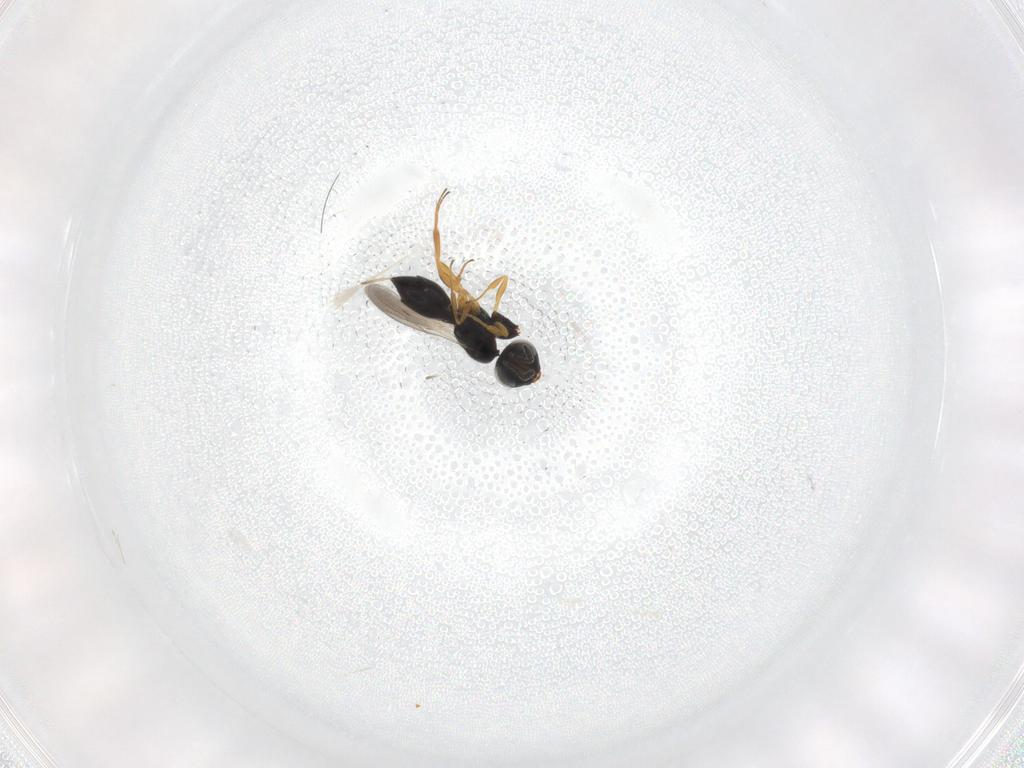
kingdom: Animalia
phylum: Arthropoda
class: Insecta
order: Hymenoptera
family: Scelionidae
